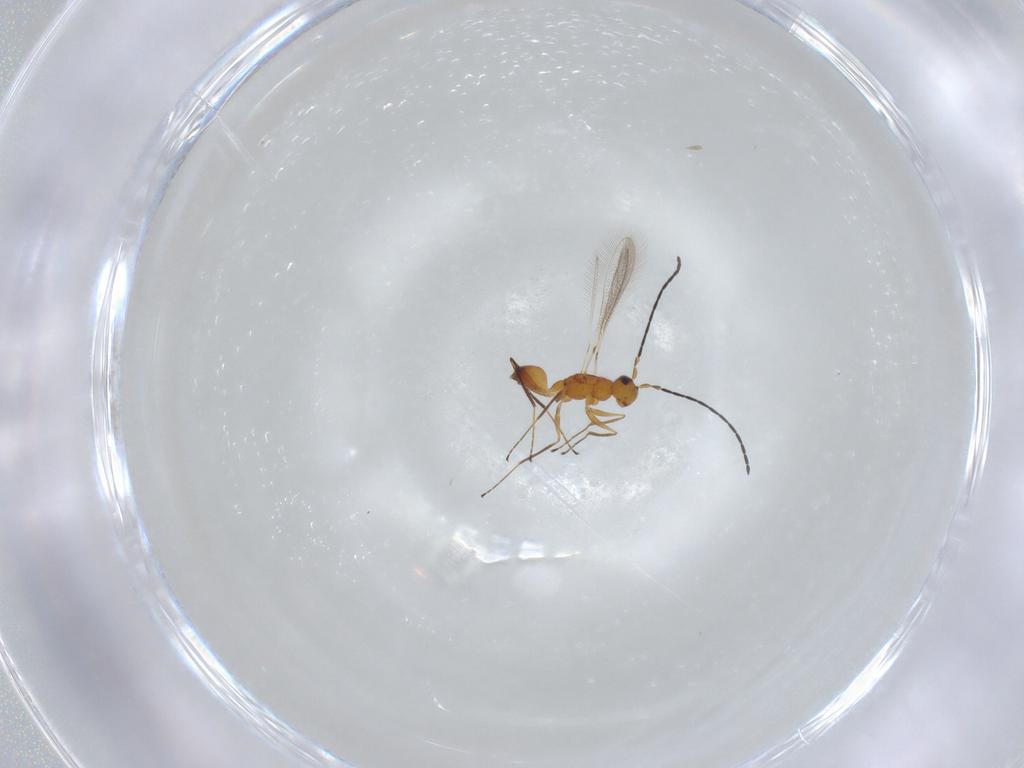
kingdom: Animalia
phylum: Arthropoda
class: Insecta
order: Hymenoptera
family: Mymaridae
